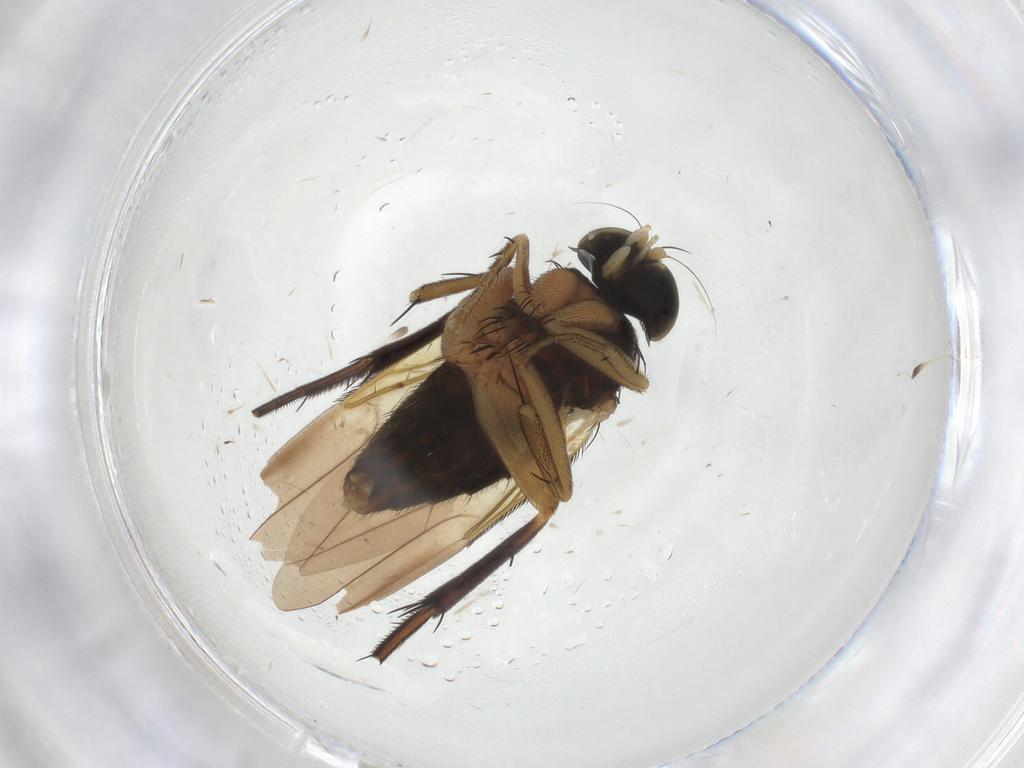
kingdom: Animalia
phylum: Arthropoda
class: Insecta
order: Diptera
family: Phoridae
